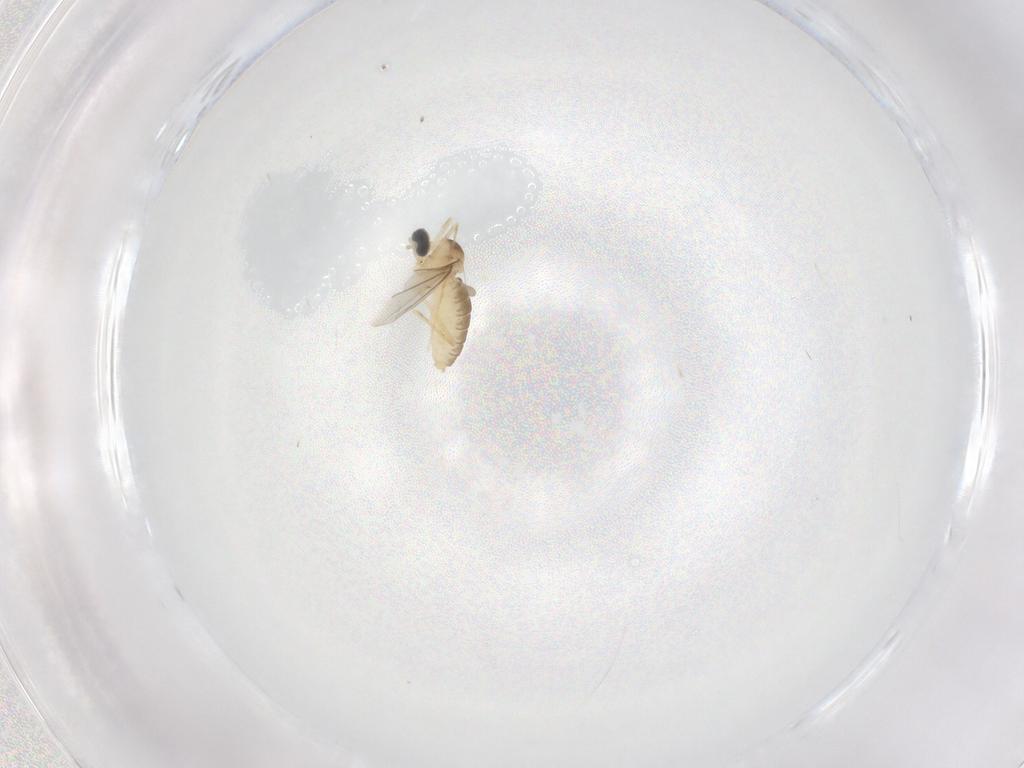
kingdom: Animalia
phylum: Arthropoda
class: Insecta
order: Diptera
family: Cecidomyiidae
